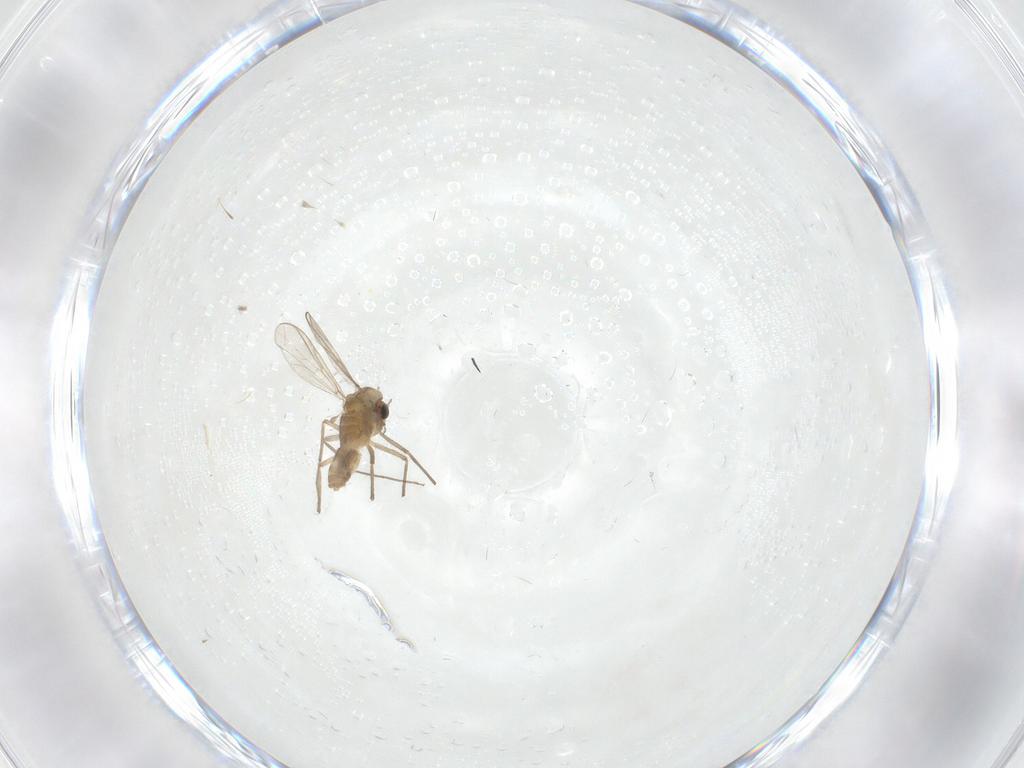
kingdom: Animalia
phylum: Arthropoda
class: Insecta
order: Diptera
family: Chironomidae
